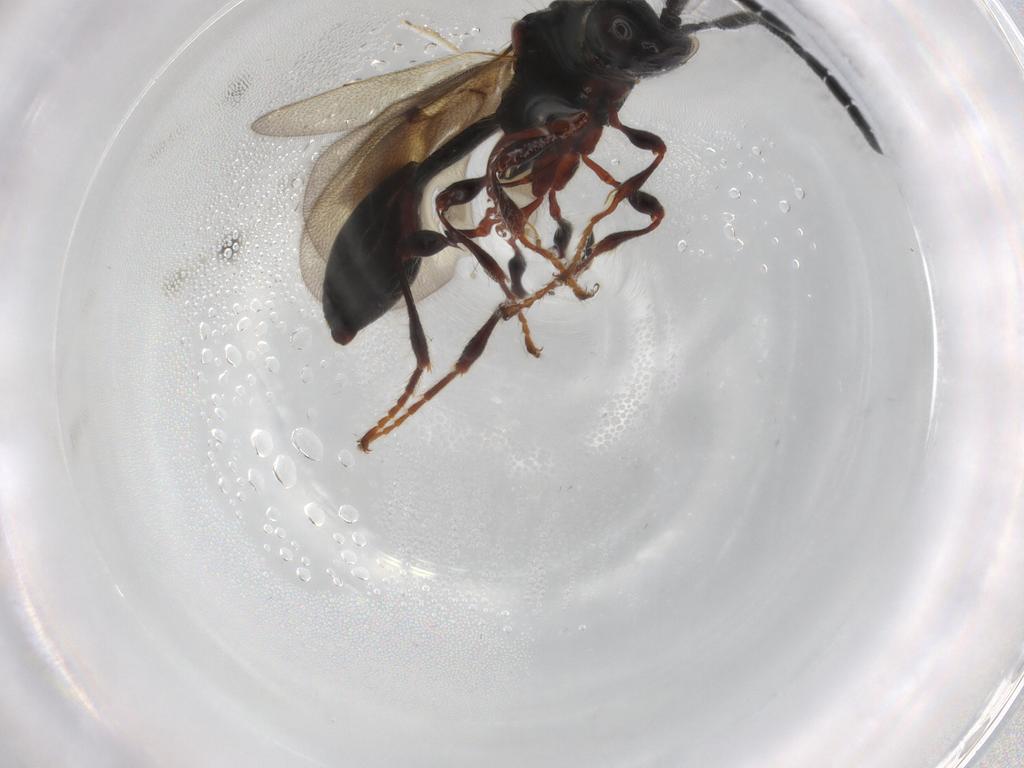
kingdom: Animalia
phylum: Arthropoda
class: Insecta
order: Hymenoptera
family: Diapriidae
